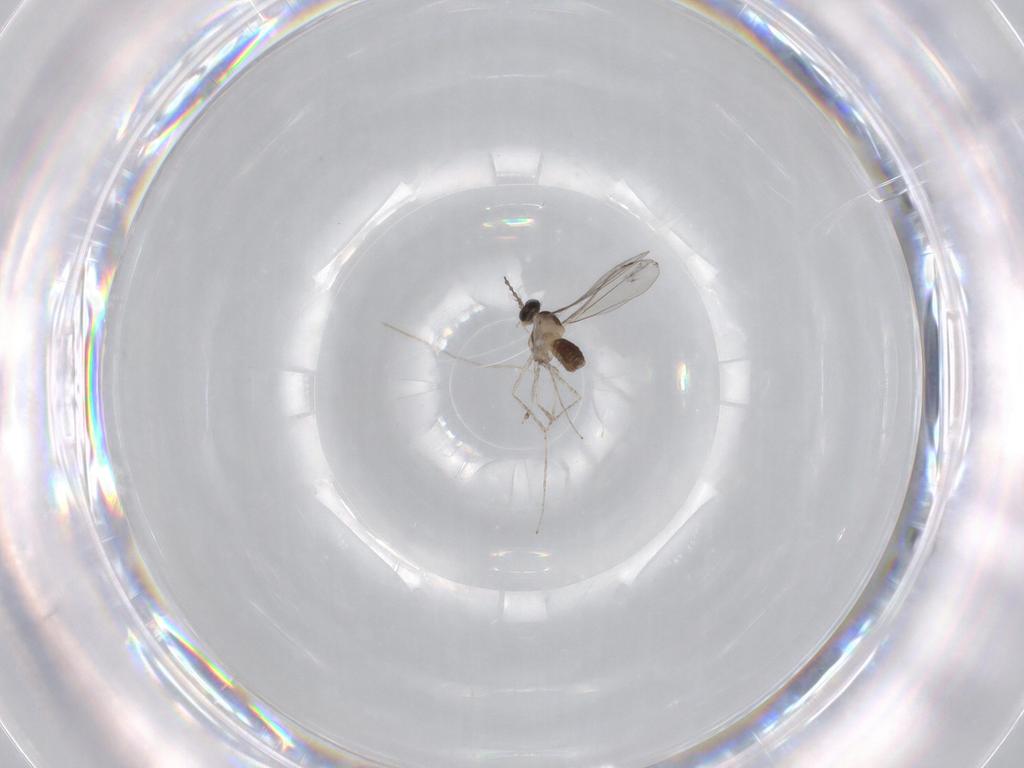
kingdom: Animalia
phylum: Arthropoda
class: Insecta
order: Diptera
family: Cecidomyiidae
